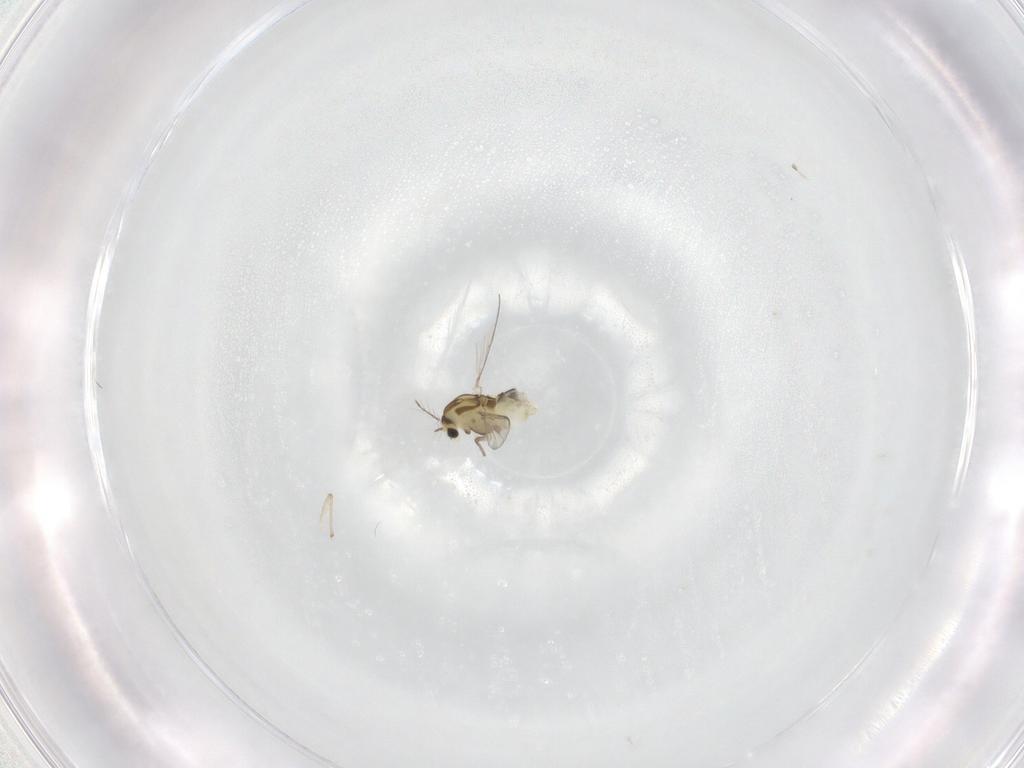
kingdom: Animalia
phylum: Arthropoda
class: Insecta
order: Diptera
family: Chironomidae
